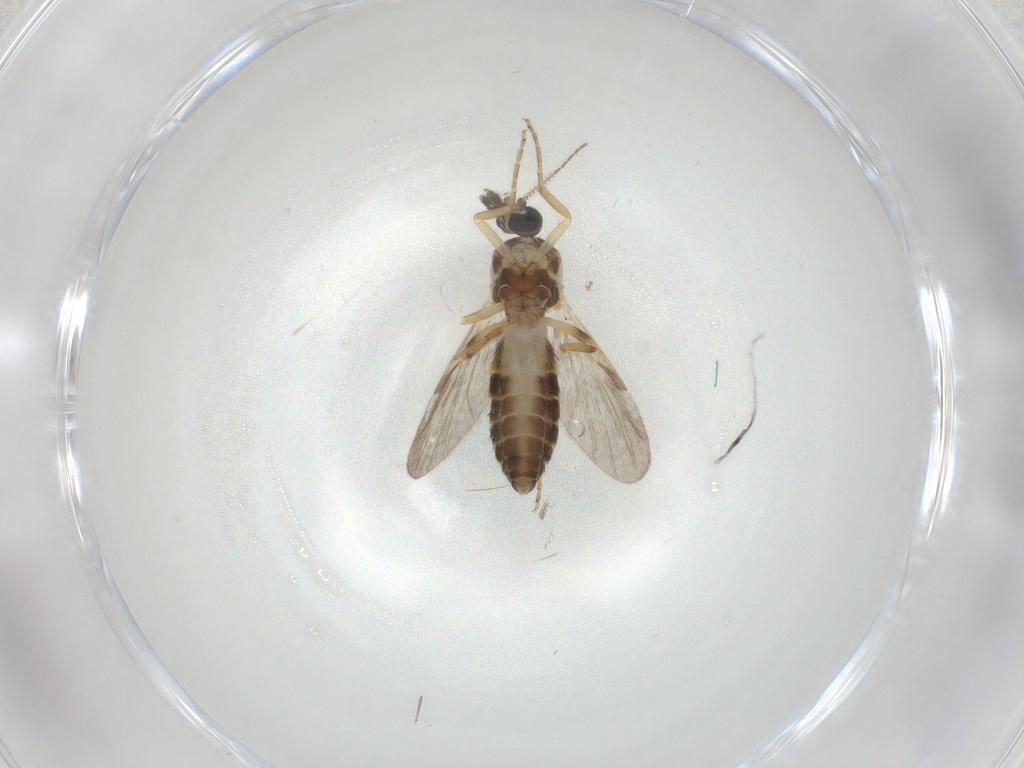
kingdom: Animalia
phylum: Arthropoda
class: Insecta
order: Diptera
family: Ceratopogonidae
